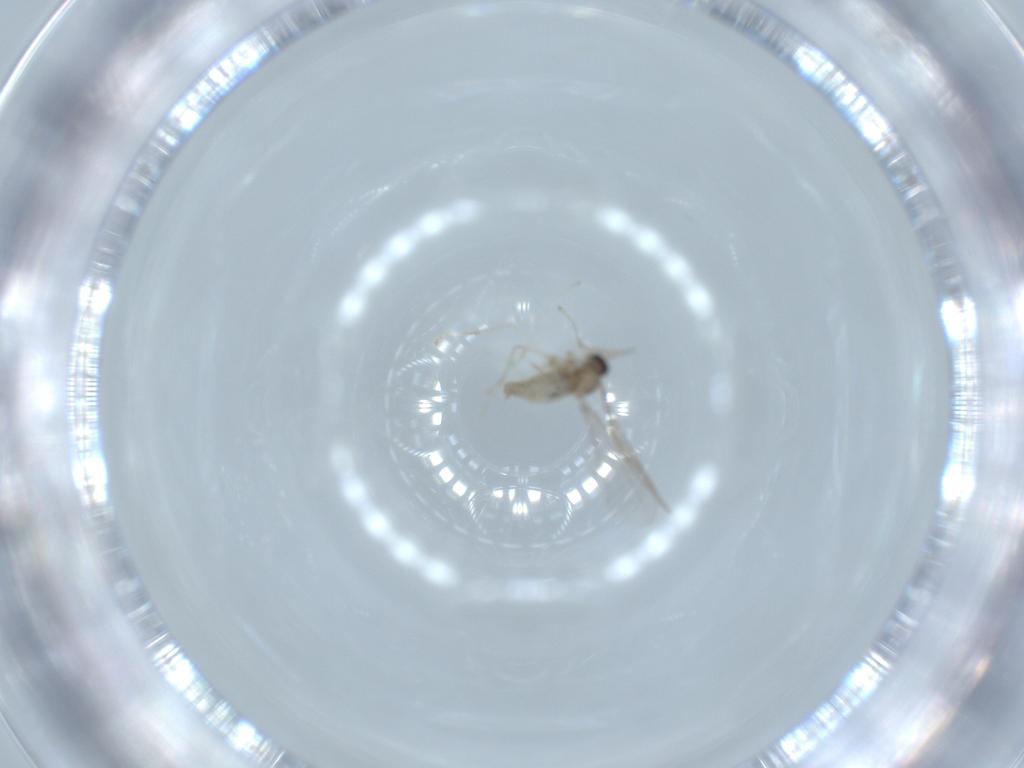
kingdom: Animalia
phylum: Arthropoda
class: Insecta
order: Diptera
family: Cecidomyiidae
